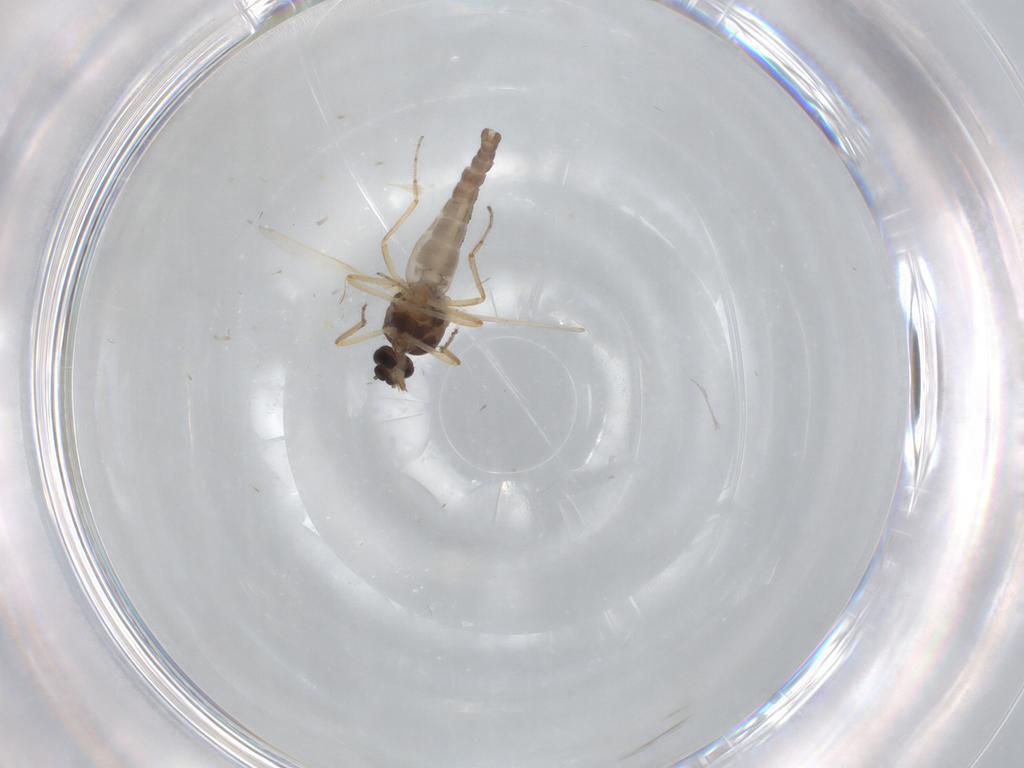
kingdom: Animalia
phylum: Arthropoda
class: Insecta
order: Diptera
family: Ceratopogonidae
